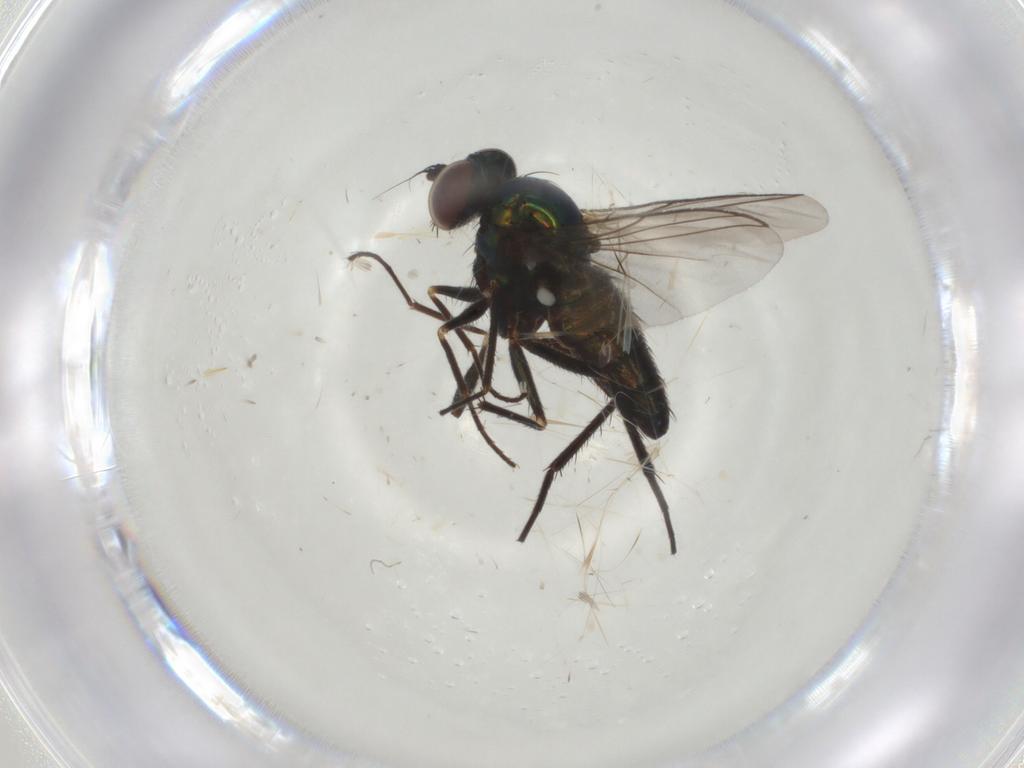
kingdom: Animalia
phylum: Arthropoda
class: Insecta
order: Diptera
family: Dolichopodidae
